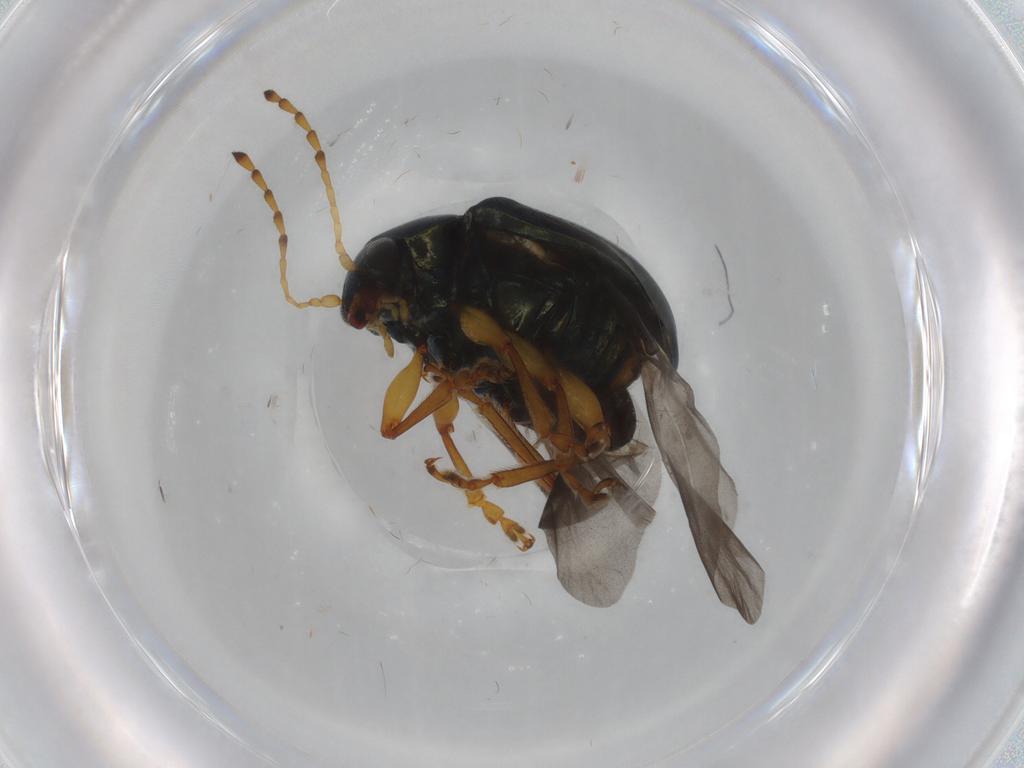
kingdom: Animalia
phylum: Arthropoda
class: Insecta
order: Coleoptera
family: Chrysomelidae
